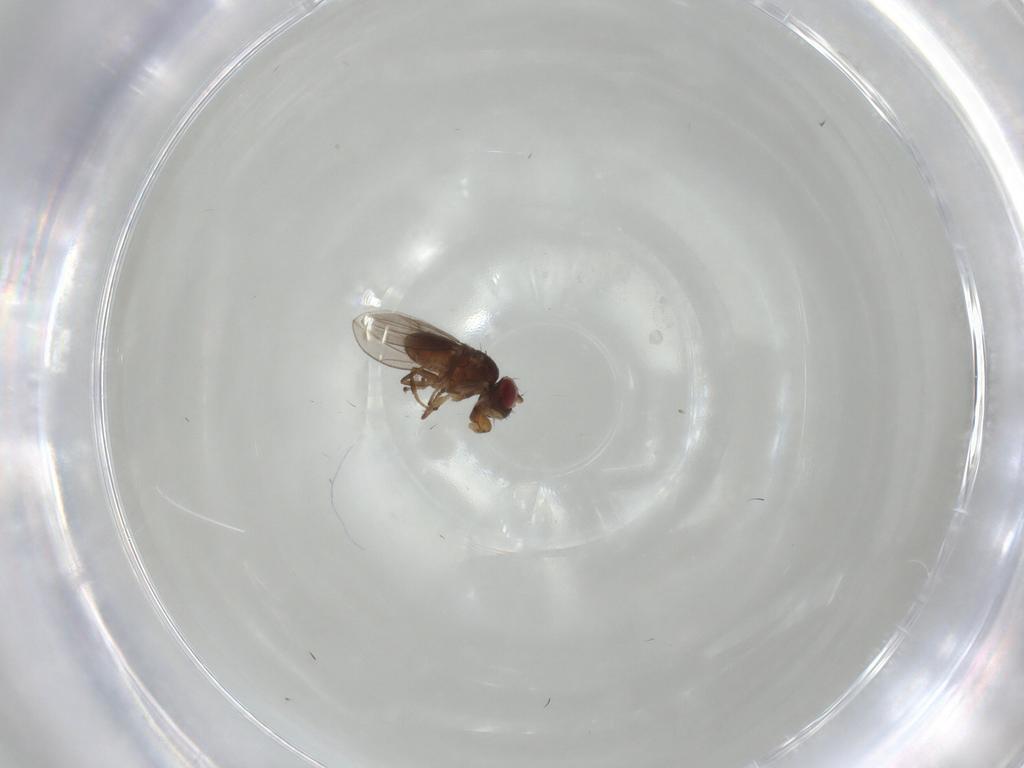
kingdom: Animalia
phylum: Arthropoda
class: Insecta
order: Diptera
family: Ephydridae
